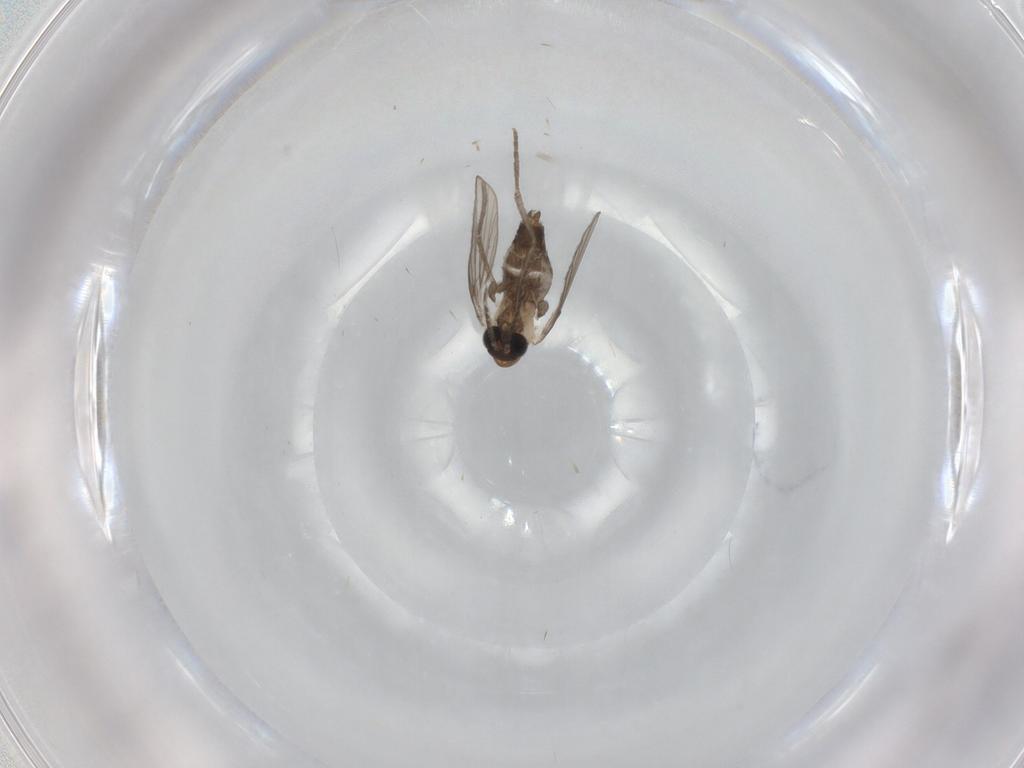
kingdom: Animalia
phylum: Arthropoda
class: Insecta
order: Diptera
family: Psychodidae
